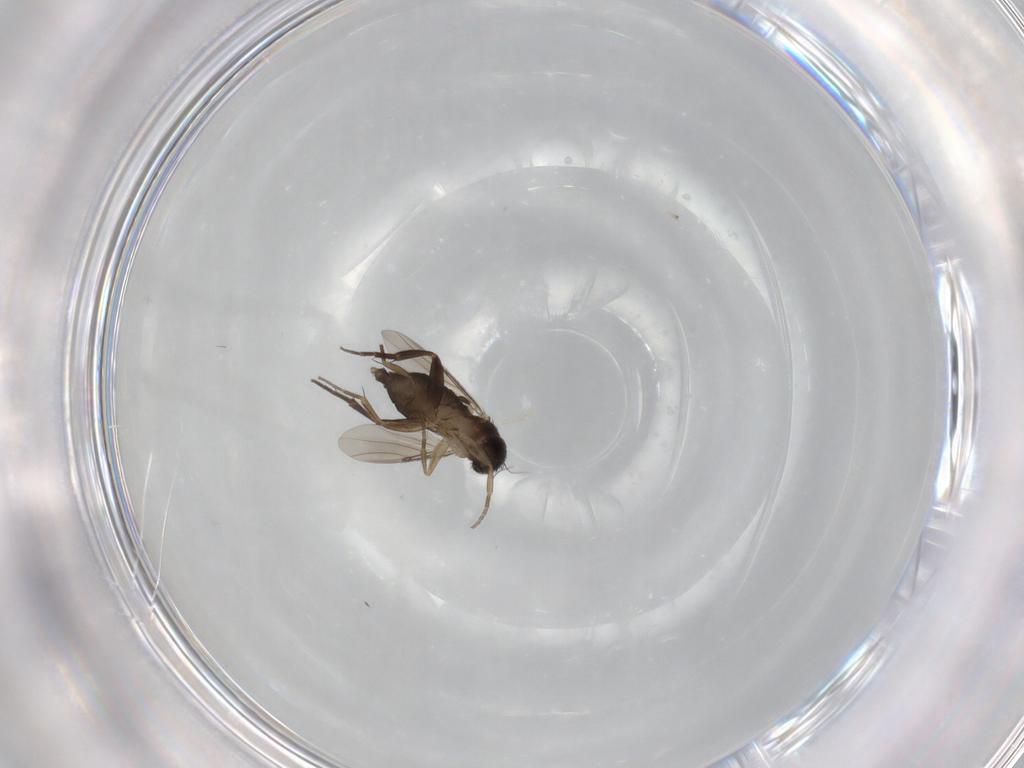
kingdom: Animalia
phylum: Arthropoda
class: Insecta
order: Diptera
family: Phoridae
